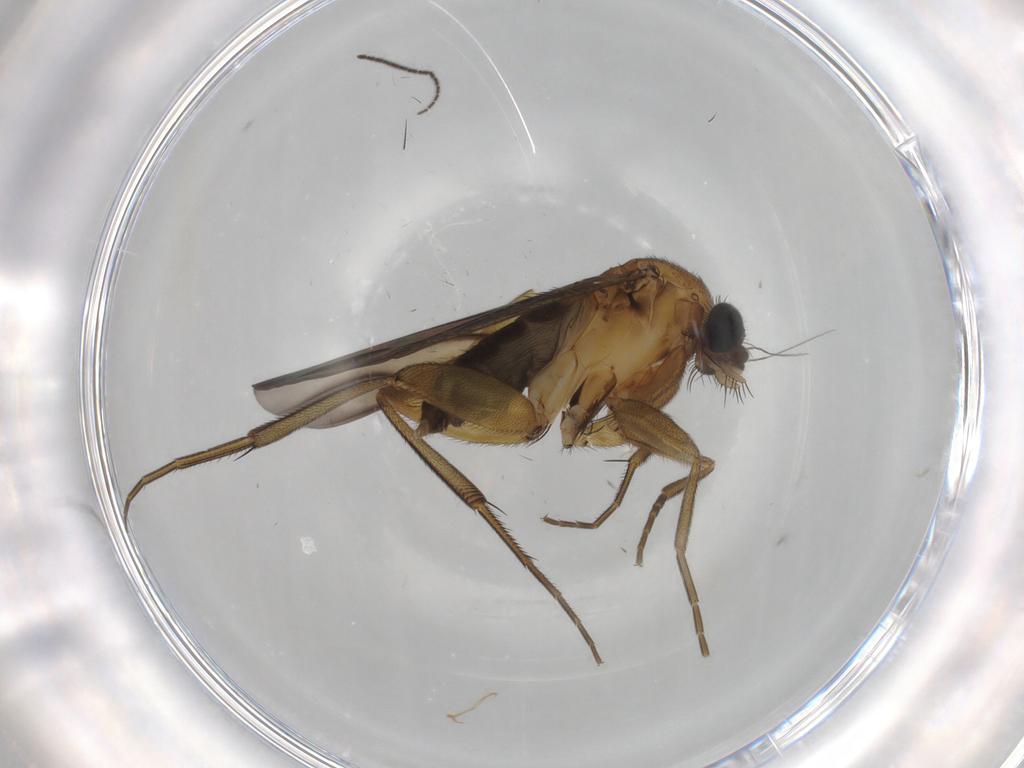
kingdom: Animalia
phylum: Arthropoda
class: Insecta
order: Diptera
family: Phoridae
